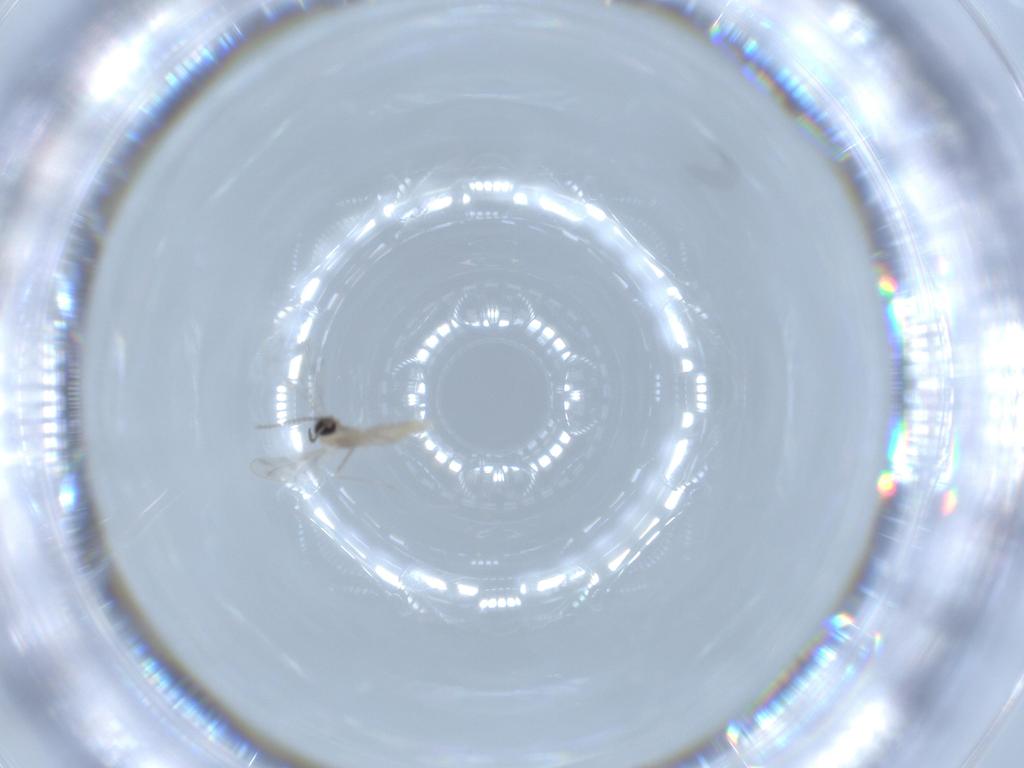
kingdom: Animalia
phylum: Arthropoda
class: Insecta
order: Diptera
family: Cecidomyiidae
